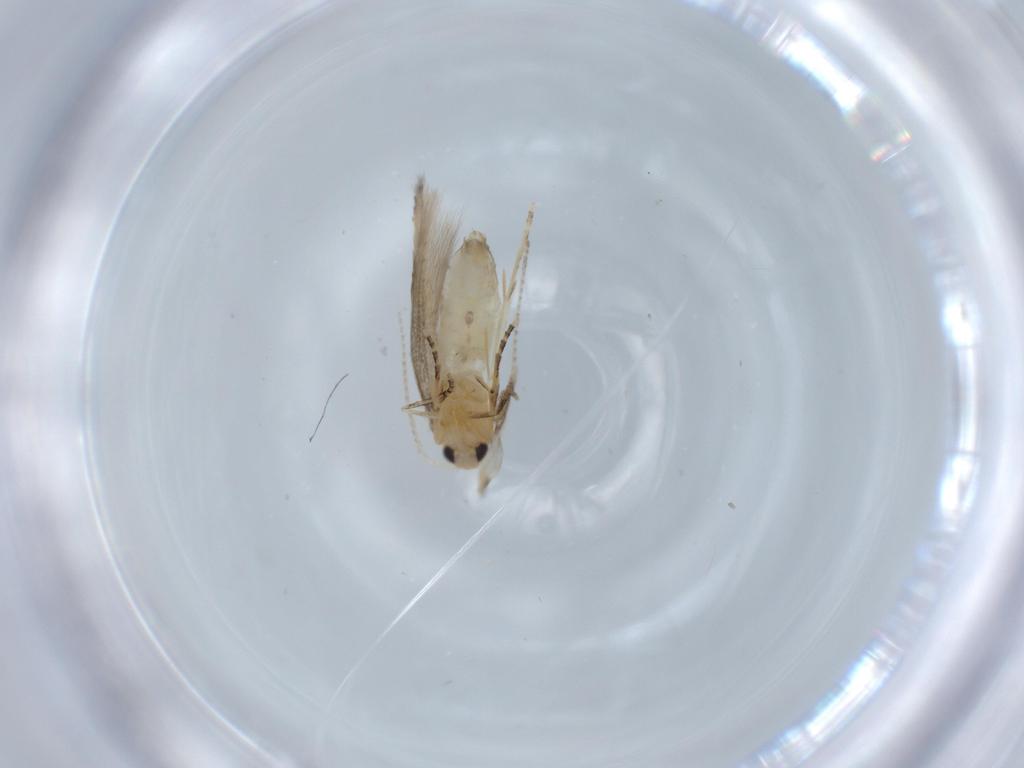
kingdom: Animalia
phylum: Arthropoda
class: Insecta
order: Lepidoptera
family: Bucculatricidae
